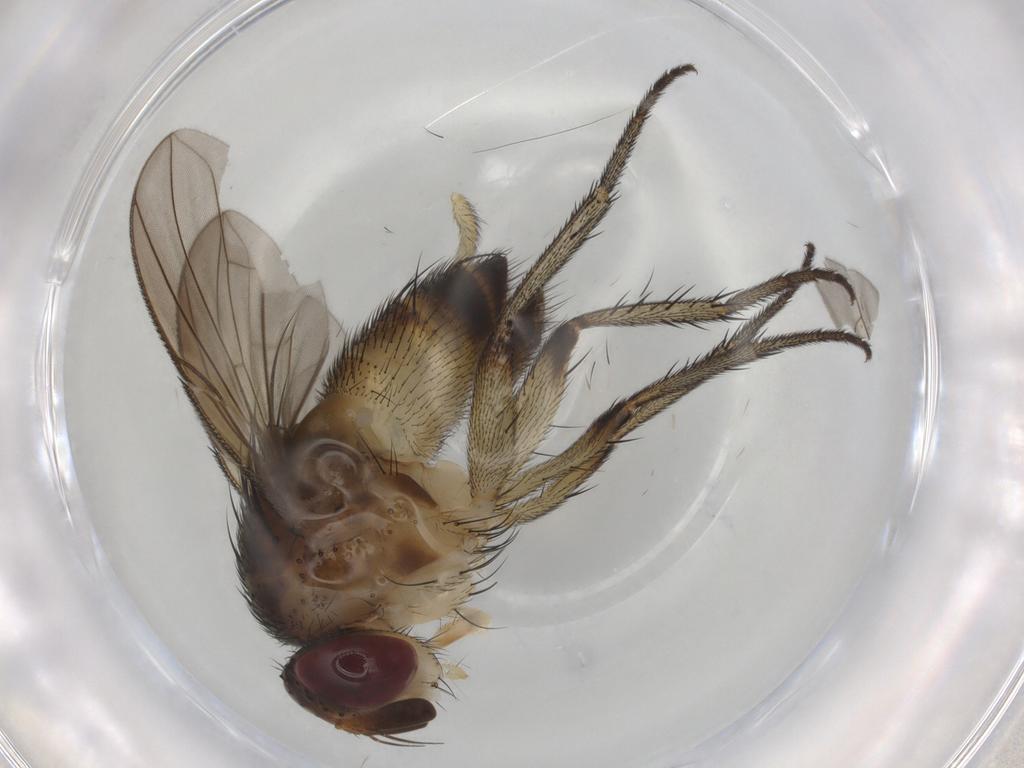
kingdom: Animalia
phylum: Arthropoda
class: Insecta
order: Diptera
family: Tachinidae
